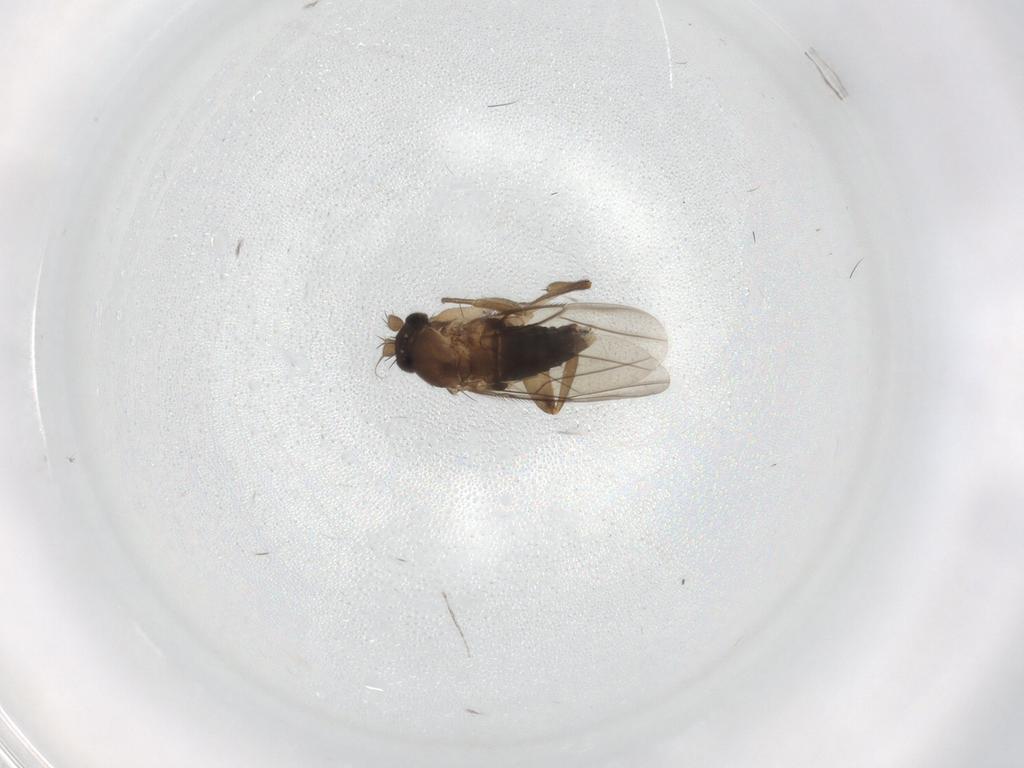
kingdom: Animalia
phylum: Arthropoda
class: Insecta
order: Diptera
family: Phoridae
